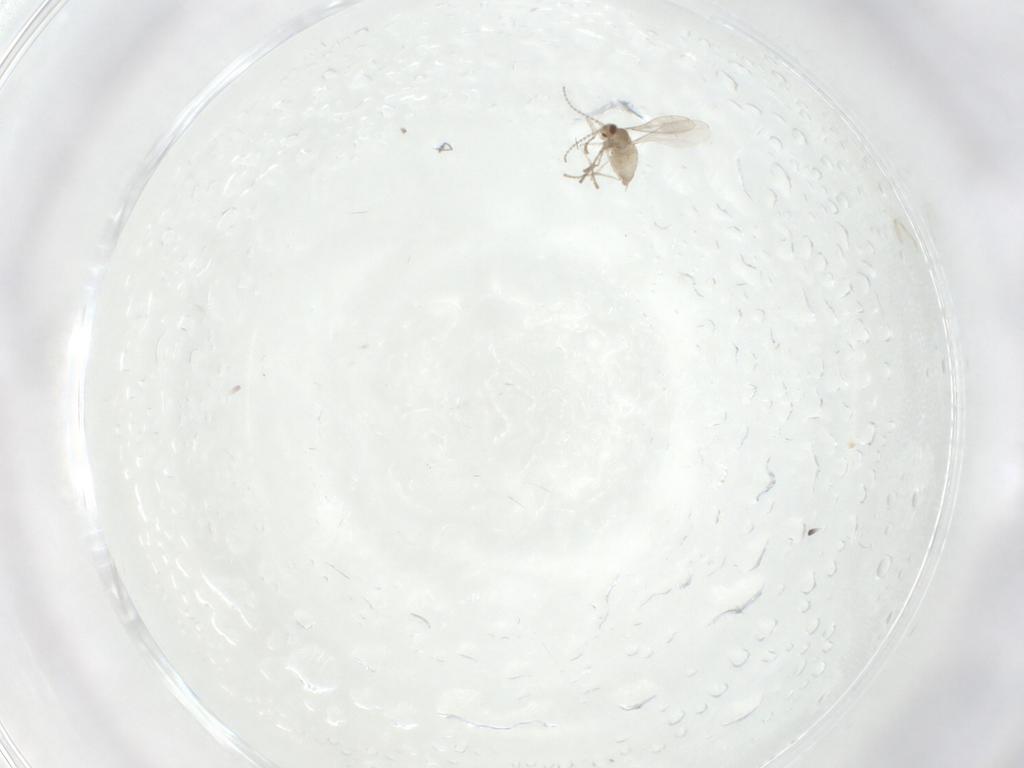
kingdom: Animalia
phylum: Arthropoda
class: Insecta
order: Diptera
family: Cecidomyiidae
